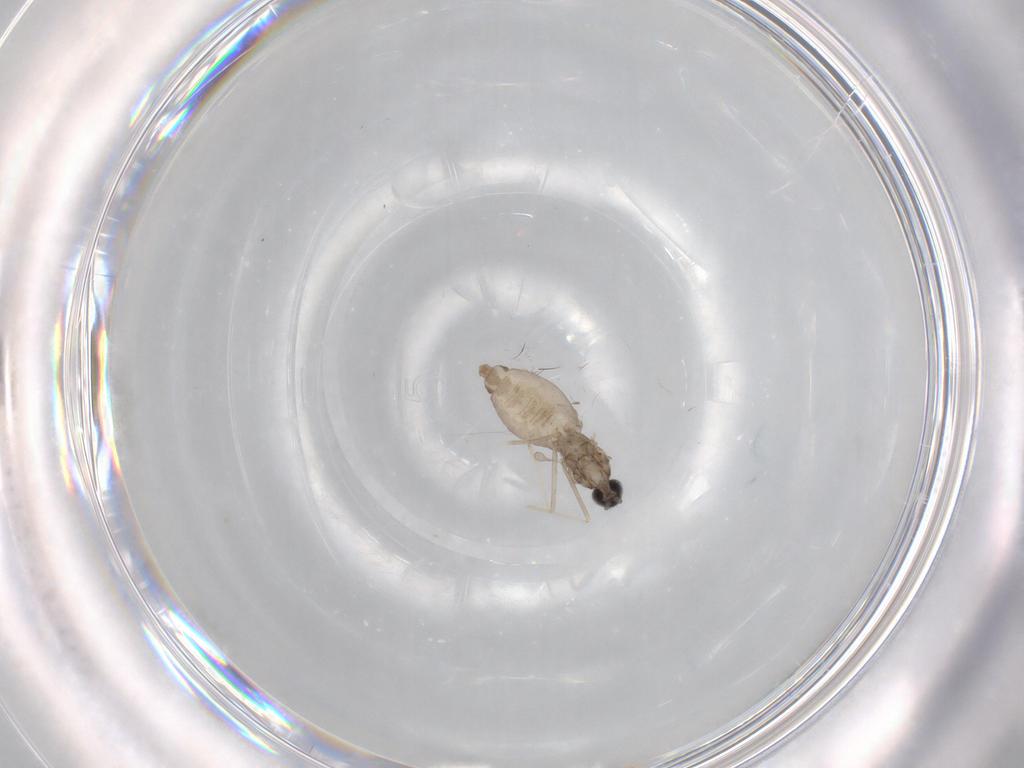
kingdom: Animalia
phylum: Arthropoda
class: Insecta
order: Diptera
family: Cecidomyiidae
